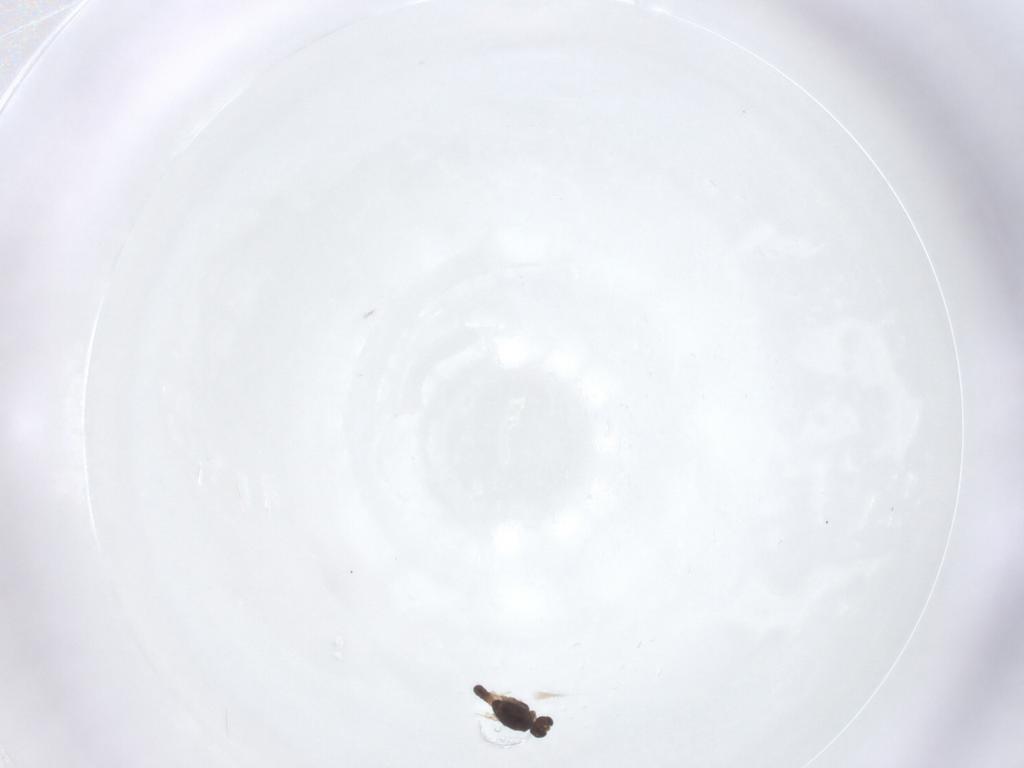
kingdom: Animalia
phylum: Arthropoda
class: Insecta
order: Diptera
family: Chironomidae
